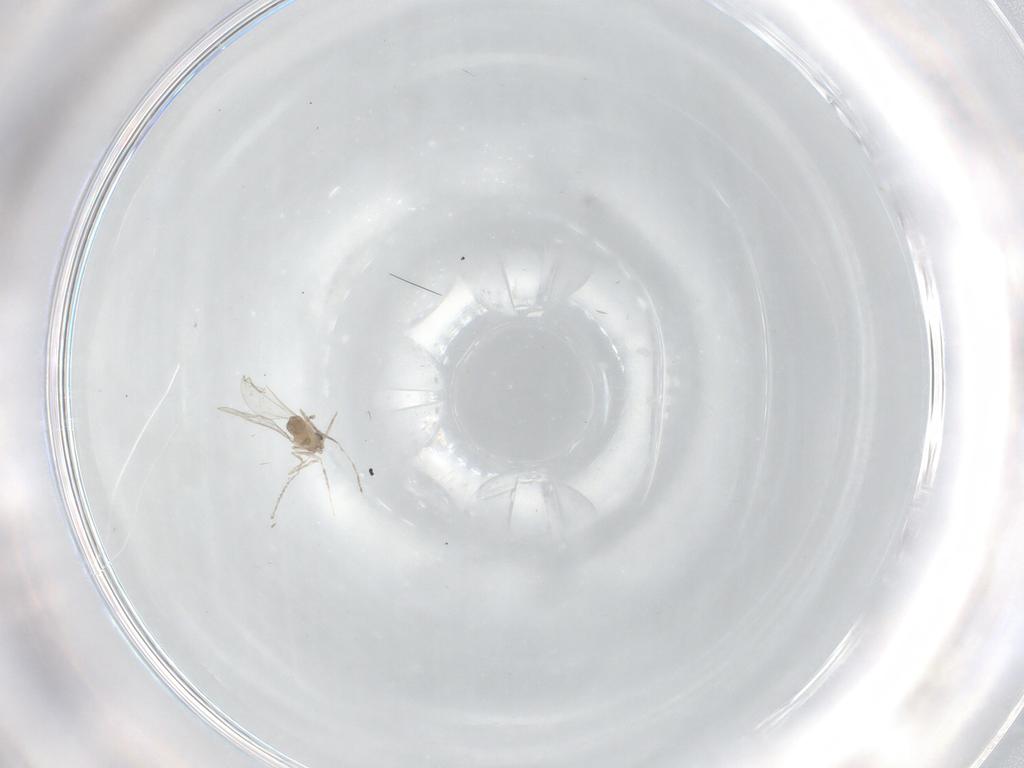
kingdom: Animalia
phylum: Arthropoda
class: Insecta
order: Diptera
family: Cecidomyiidae
